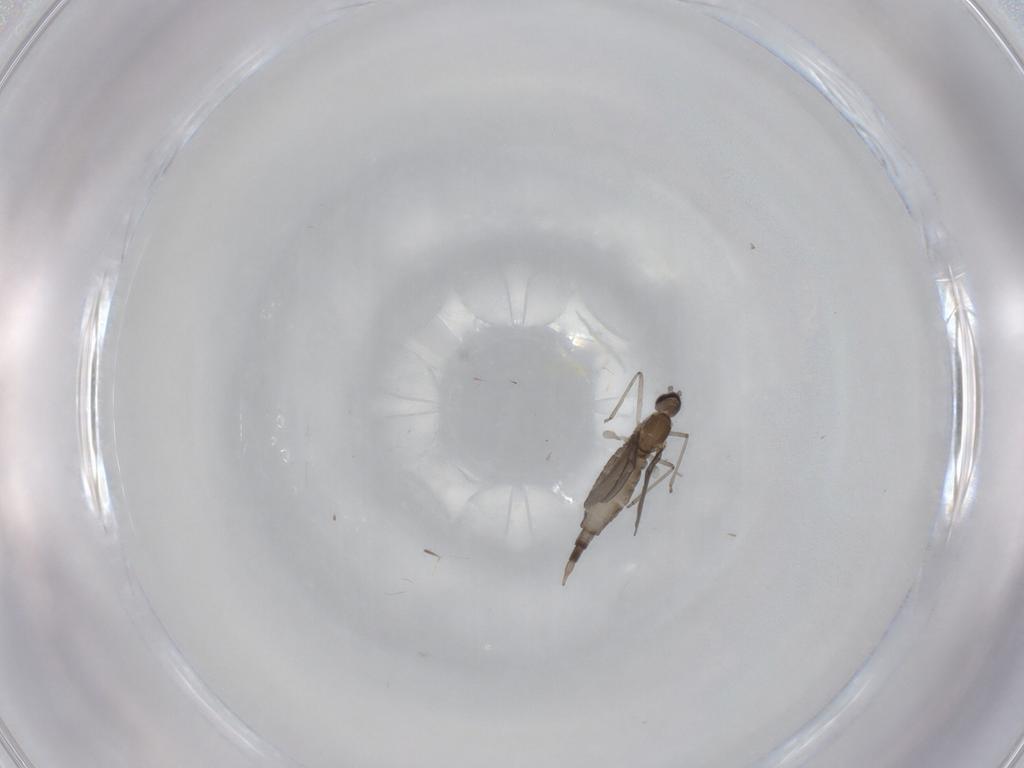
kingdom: Animalia
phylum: Arthropoda
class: Insecta
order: Diptera
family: Cecidomyiidae
